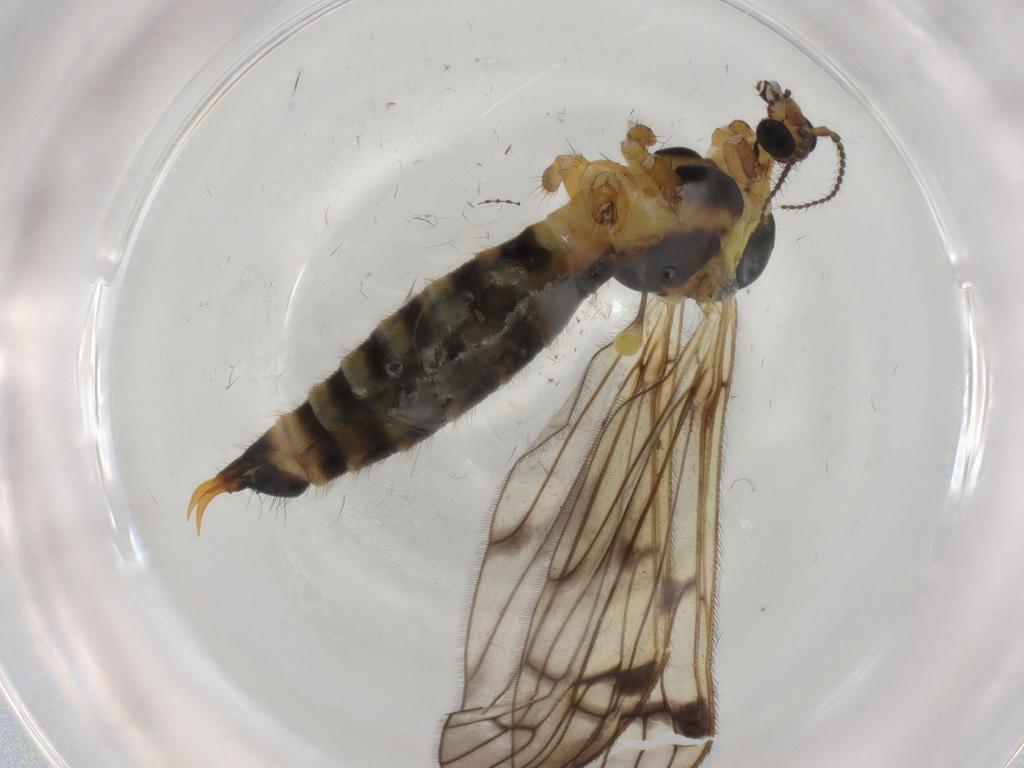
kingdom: Animalia
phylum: Arthropoda
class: Insecta
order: Diptera
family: Limoniidae
